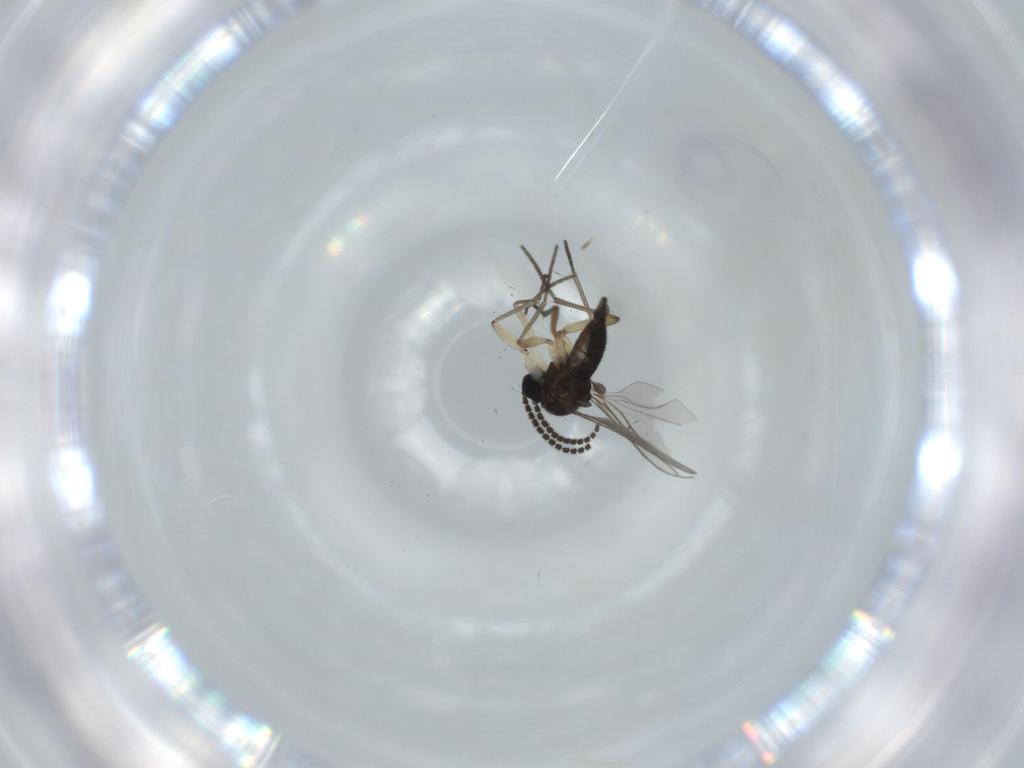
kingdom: Animalia
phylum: Arthropoda
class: Insecta
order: Diptera
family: Sciaridae
